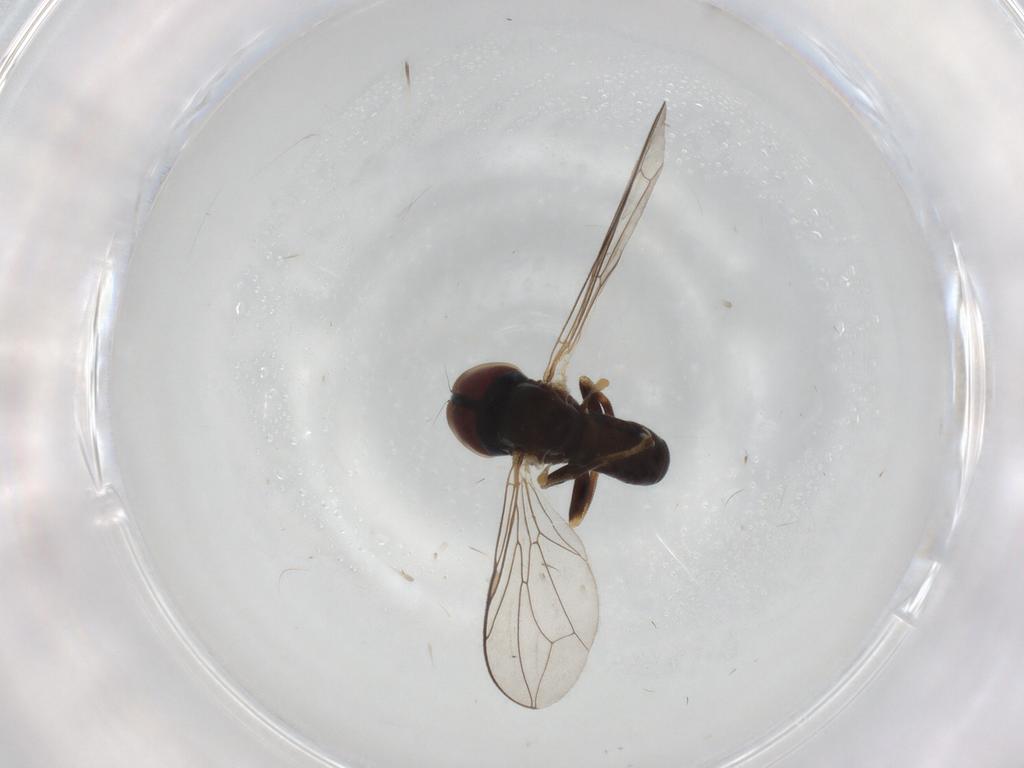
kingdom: Animalia
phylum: Arthropoda
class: Insecta
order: Diptera
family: Pipunculidae
